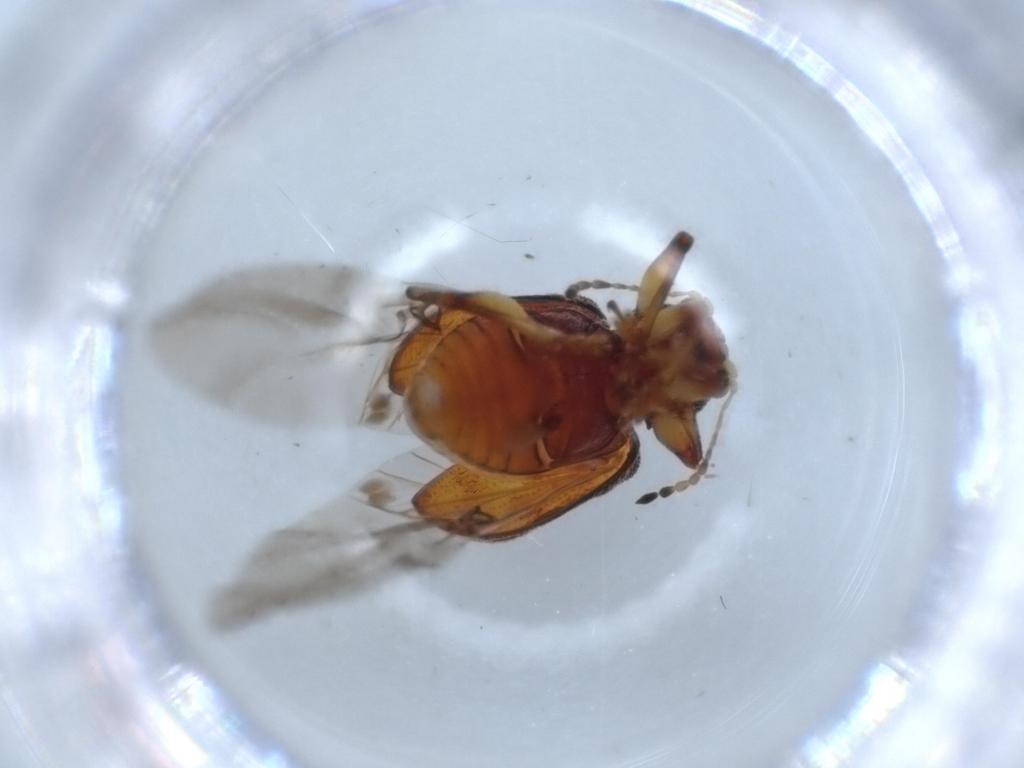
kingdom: Animalia
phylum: Arthropoda
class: Insecta
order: Coleoptera
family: Chrysomelidae
